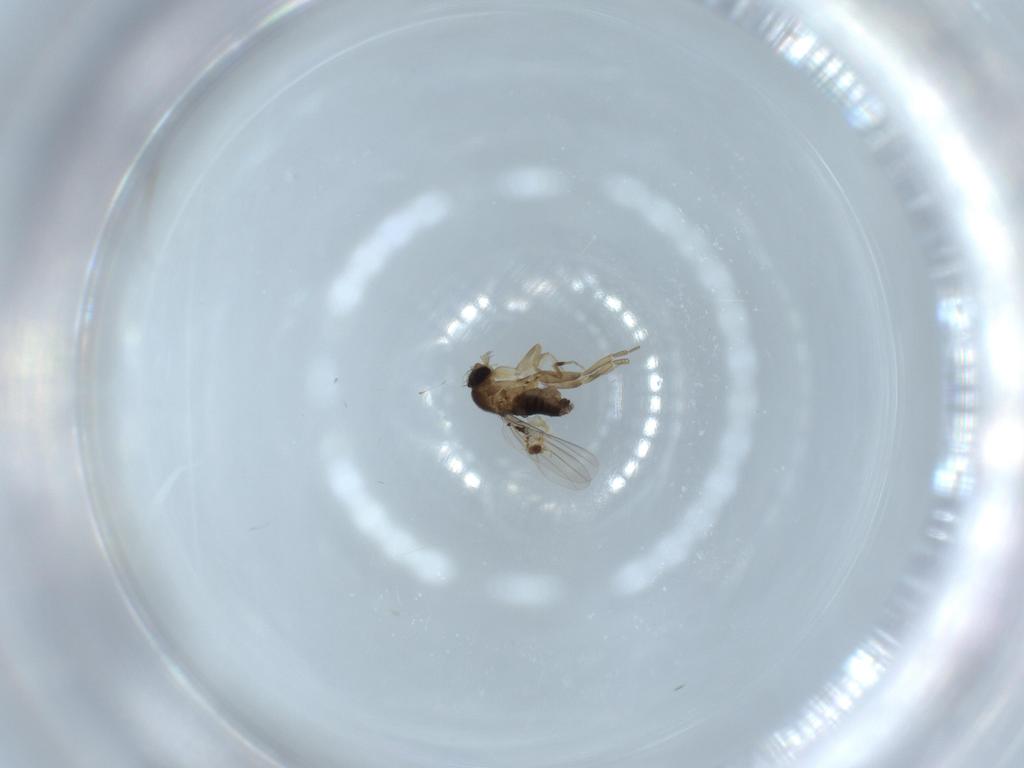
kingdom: Animalia
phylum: Arthropoda
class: Insecta
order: Diptera
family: Phoridae
